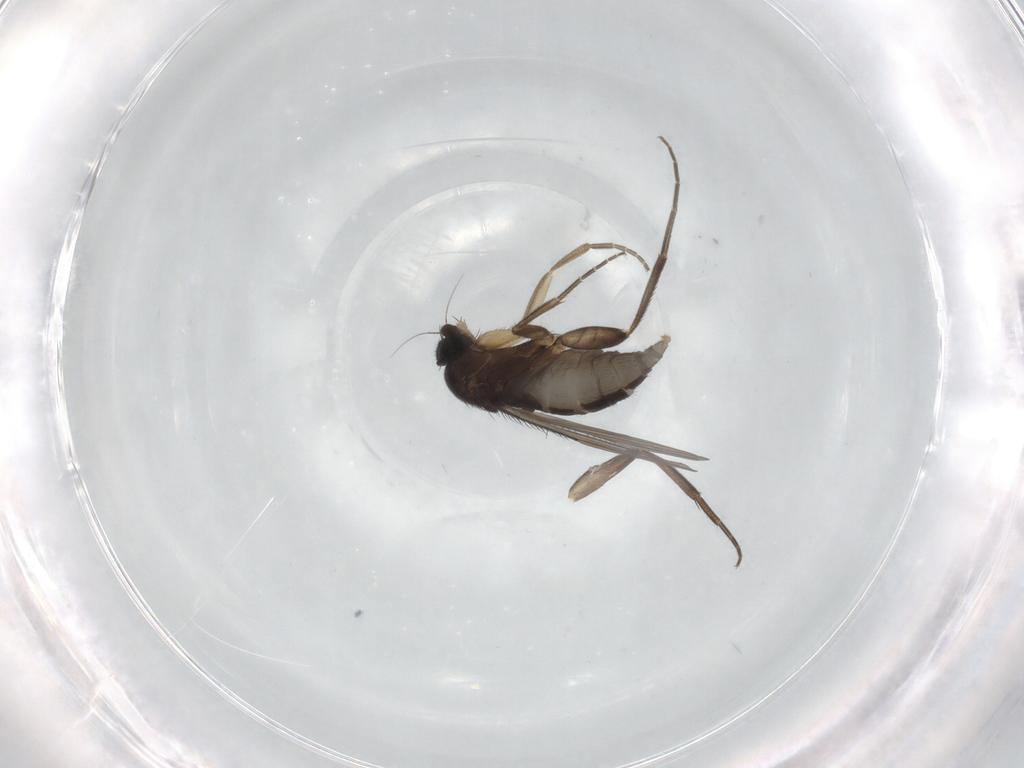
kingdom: Animalia
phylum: Arthropoda
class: Insecta
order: Diptera
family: Phoridae
